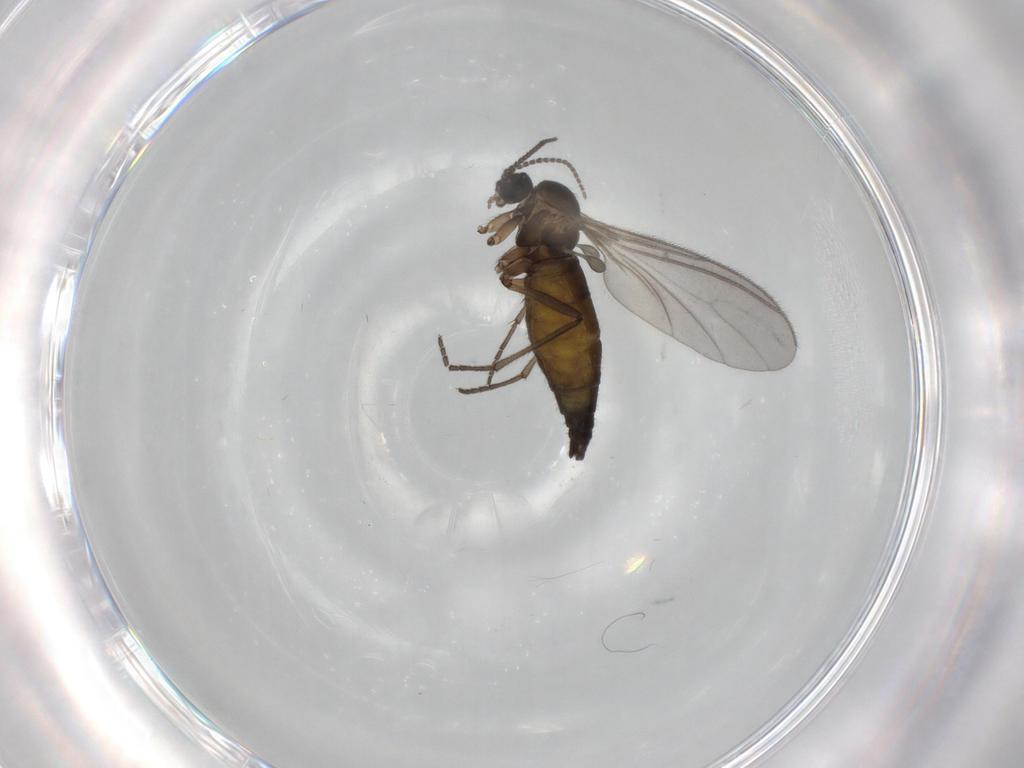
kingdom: Animalia
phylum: Arthropoda
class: Insecta
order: Diptera
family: Sciaridae
